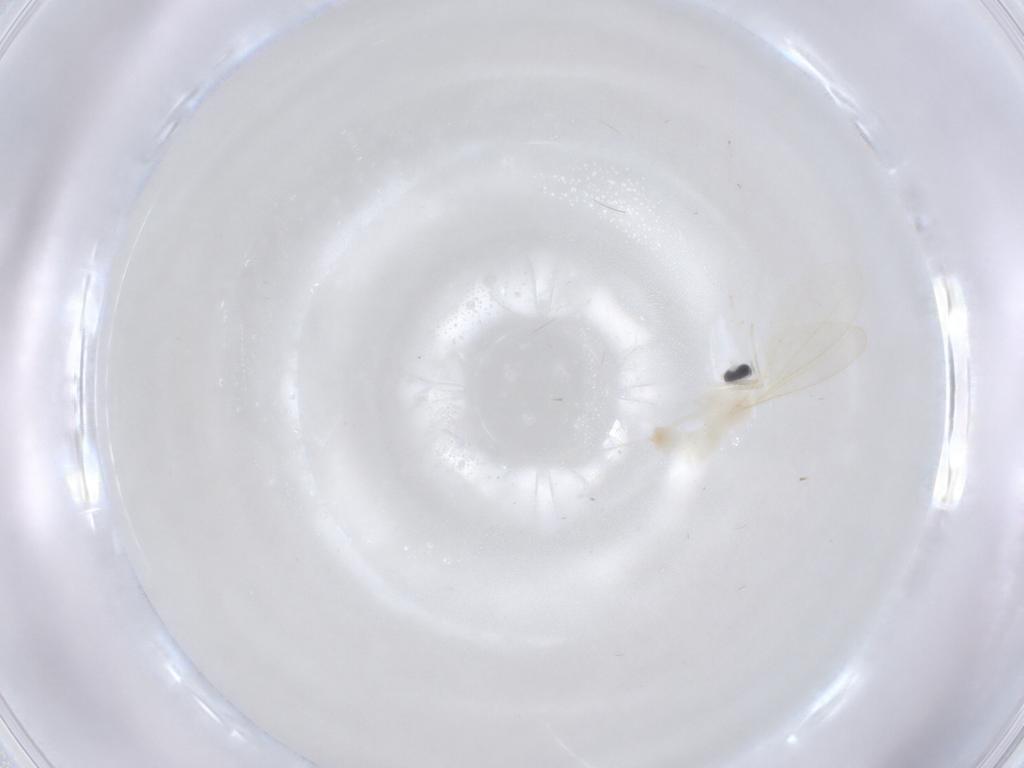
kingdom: Animalia
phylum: Arthropoda
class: Insecta
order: Diptera
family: Cecidomyiidae
